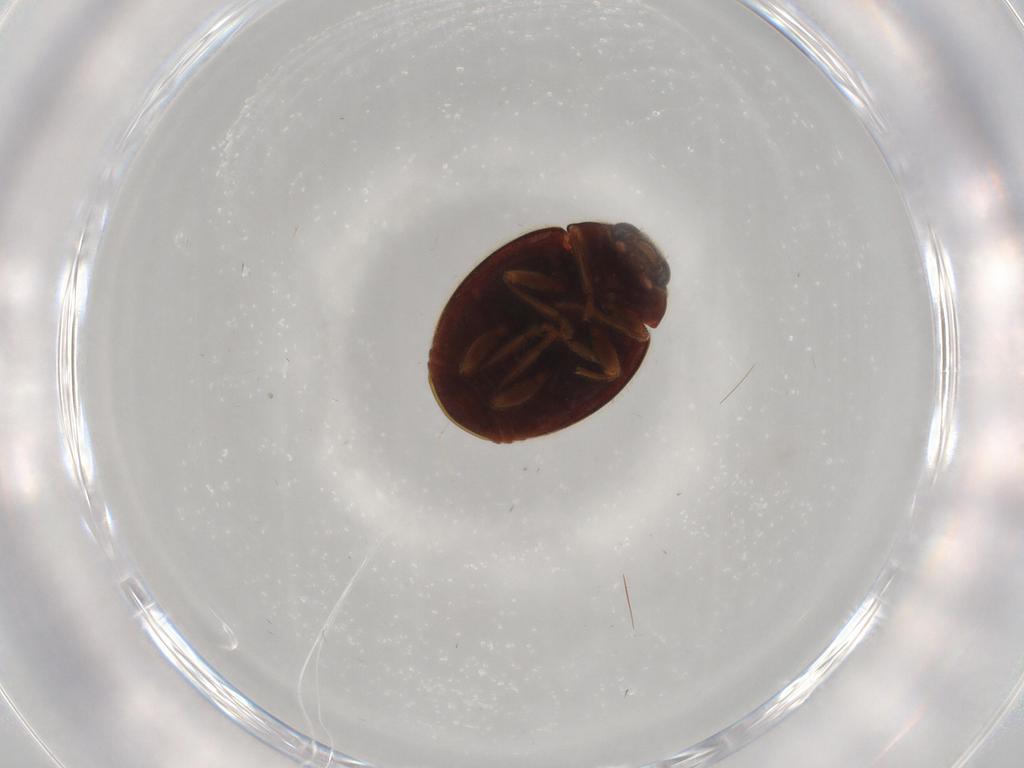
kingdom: Animalia
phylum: Arthropoda
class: Insecta
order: Coleoptera
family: Coccinellidae
